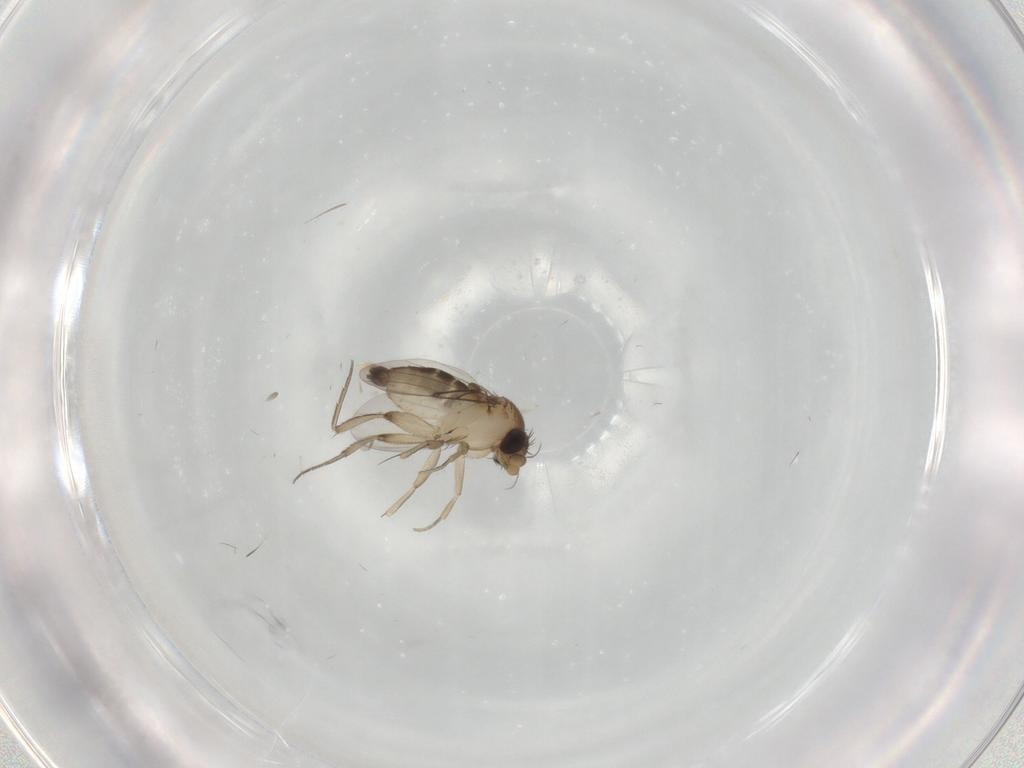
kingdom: Animalia
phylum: Arthropoda
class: Insecta
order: Diptera
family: Phoridae
